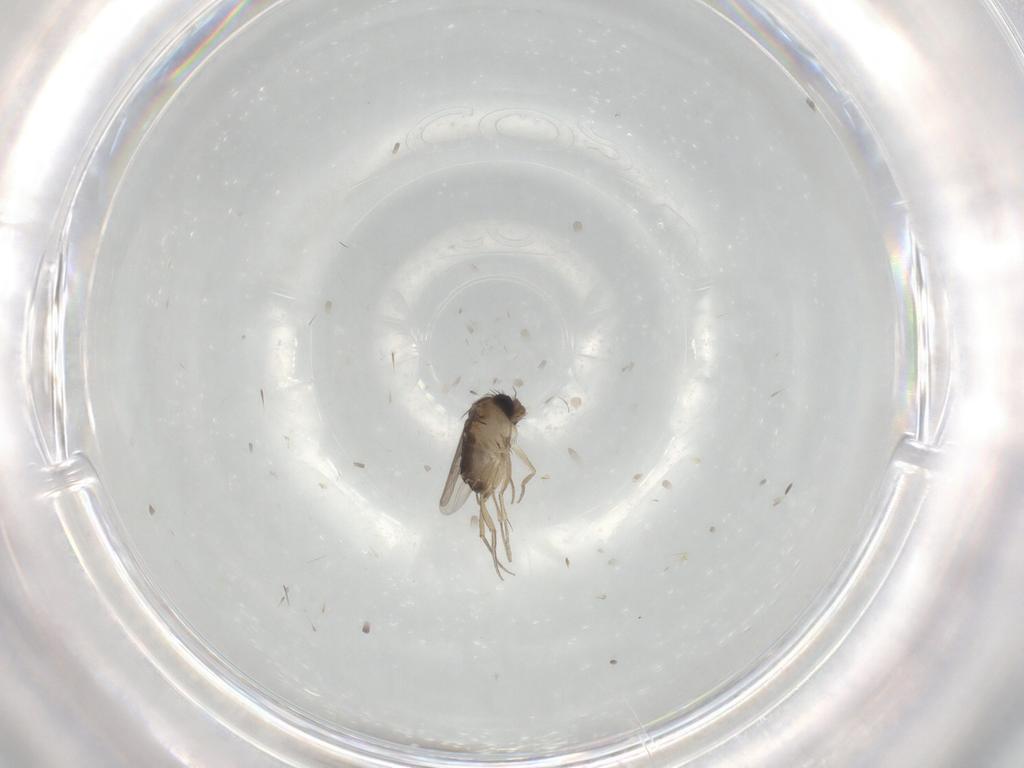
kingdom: Animalia
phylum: Arthropoda
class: Insecta
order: Diptera
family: Phoridae
